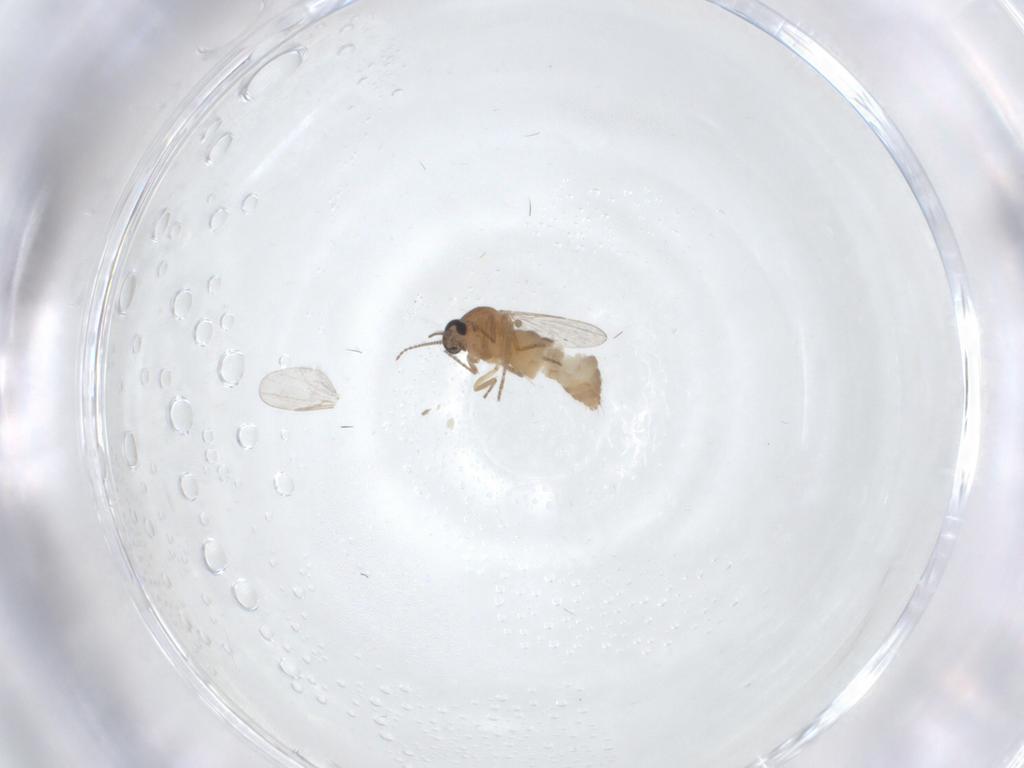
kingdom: Animalia
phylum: Arthropoda
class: Insecta
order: Diptera
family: Ceratopogonidae
